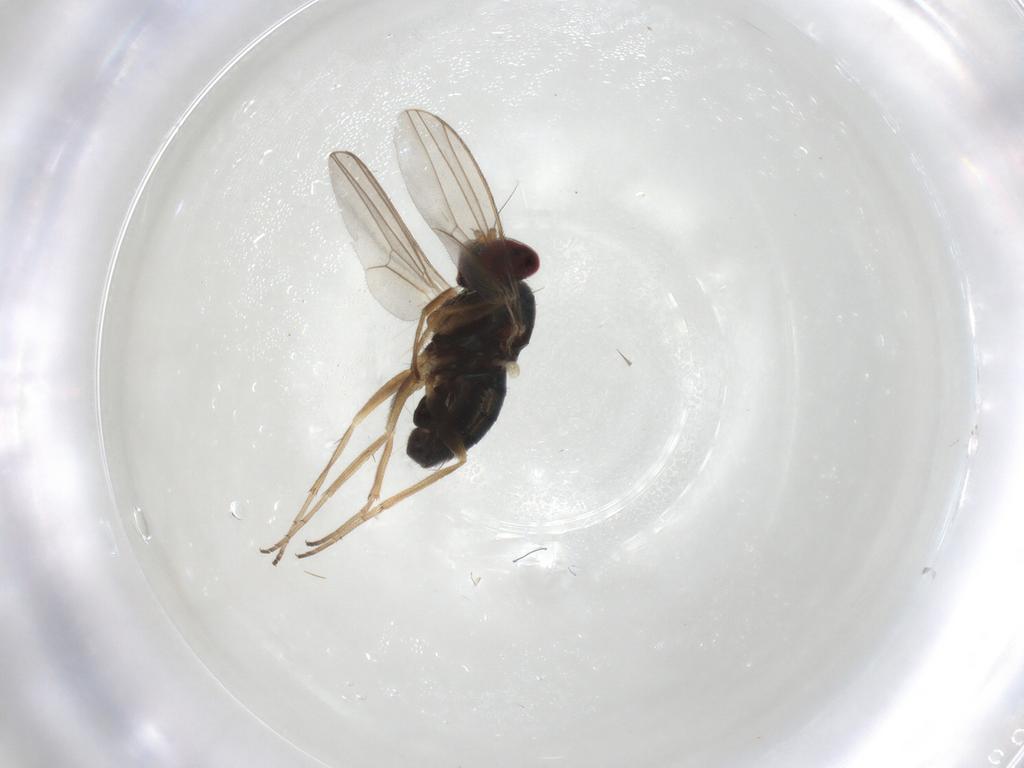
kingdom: Animalia
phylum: Arthropoda
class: Insecta
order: Diptera
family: Dolichopodidae
